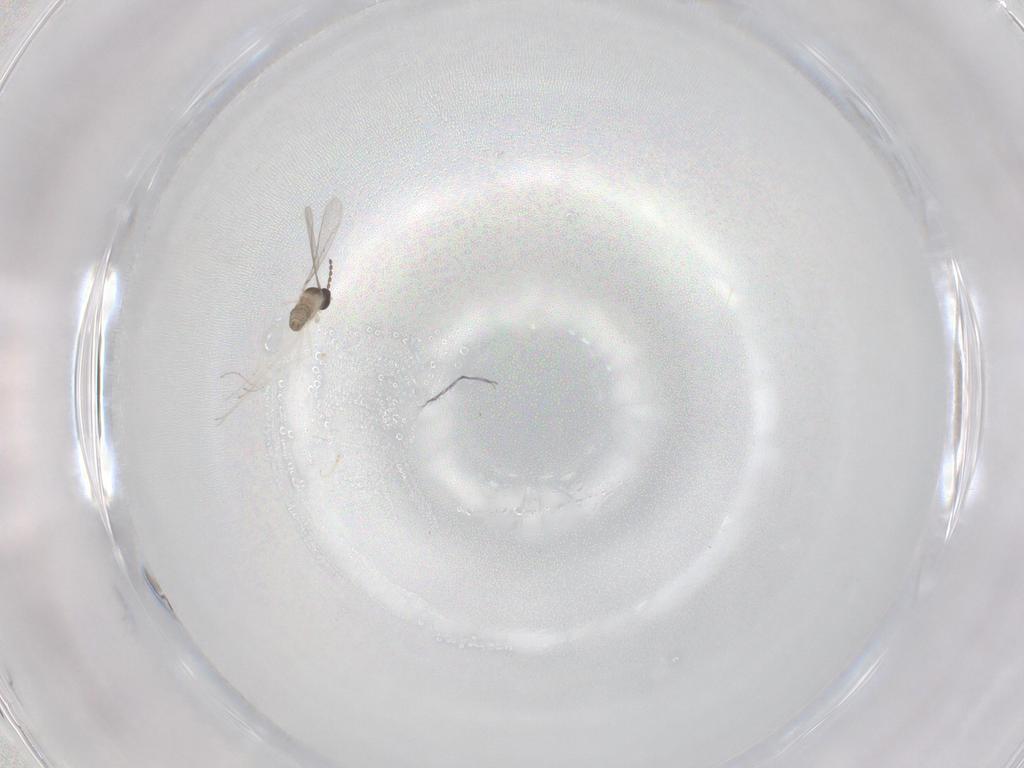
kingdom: Animalia
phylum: Arthropoda
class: Insecta
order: Diptera
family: Cecidomyiidae
